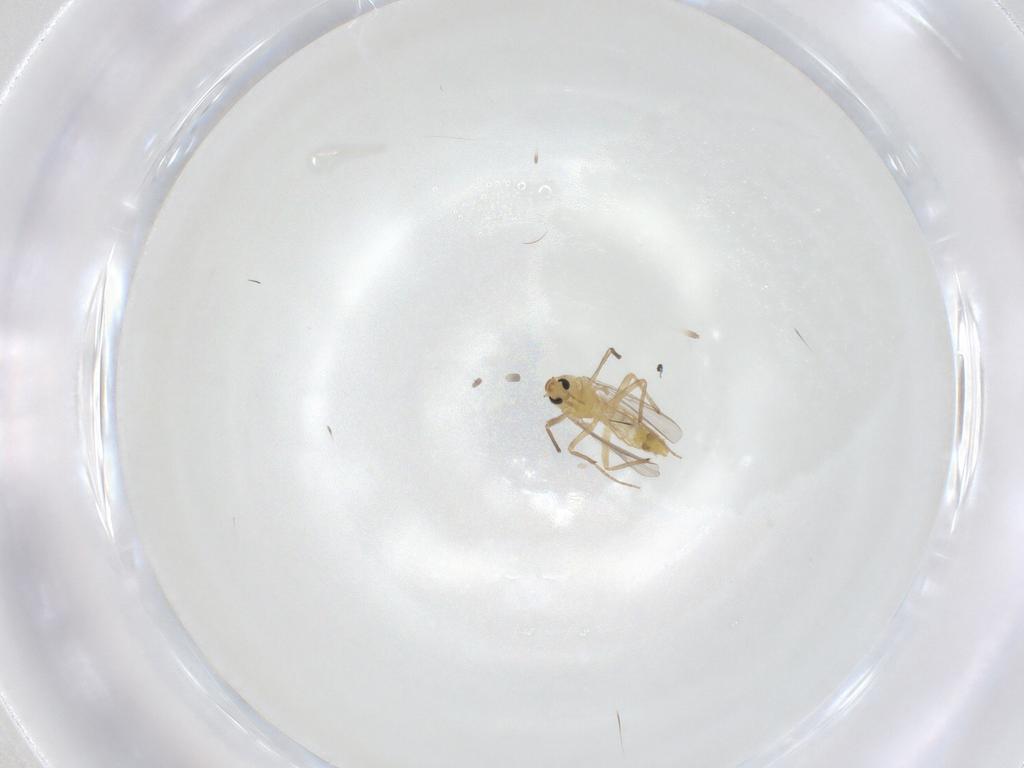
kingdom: Animalia
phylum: Arthropoda
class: Insecta
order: Diptera
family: Chironomidae
